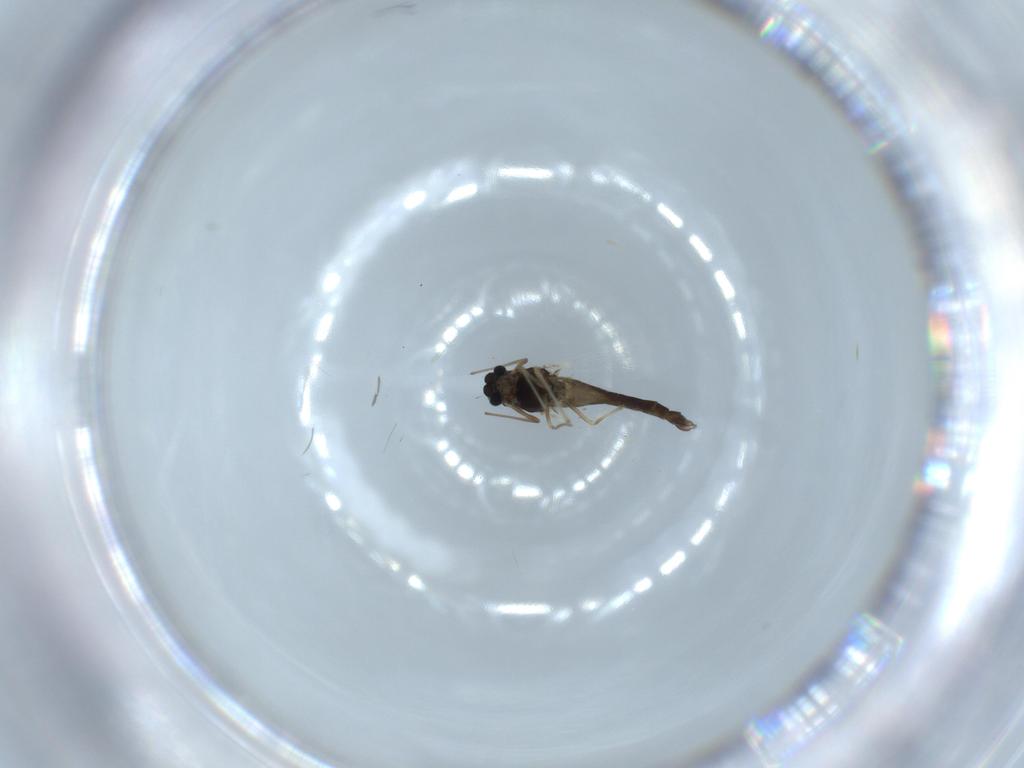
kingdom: Animalia
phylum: Arthropoda
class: Insecta
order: Diptera
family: Chironomidae
